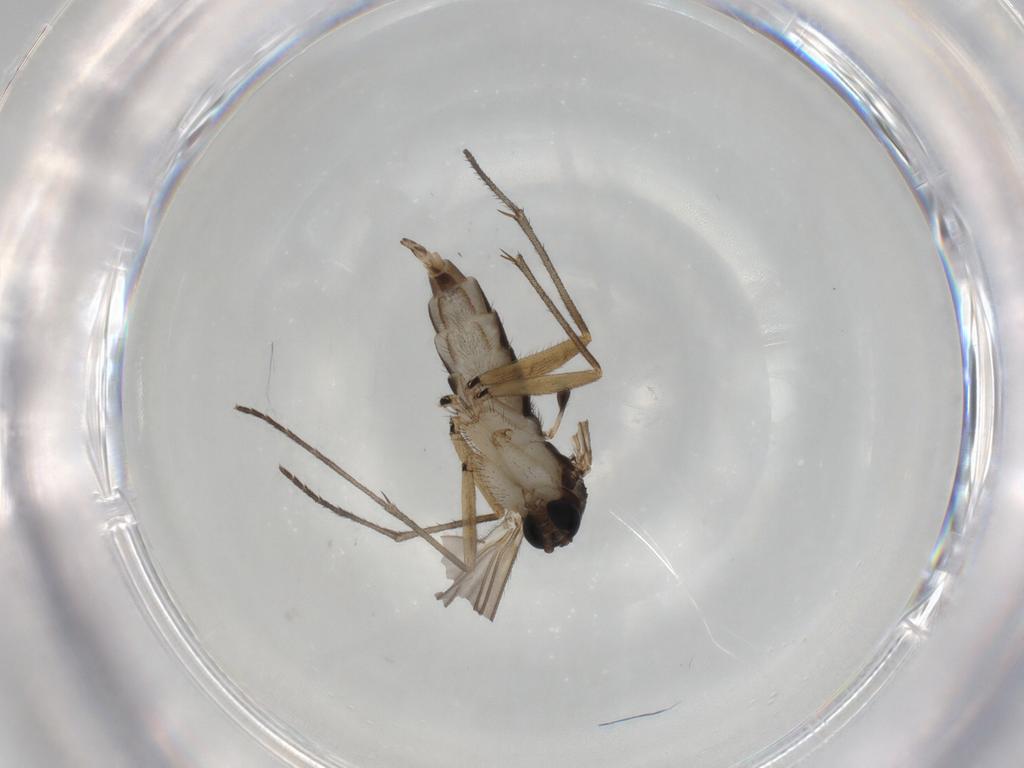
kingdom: Animalia
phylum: Arthropoda
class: Insecta
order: Diptera
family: Sciaridae
